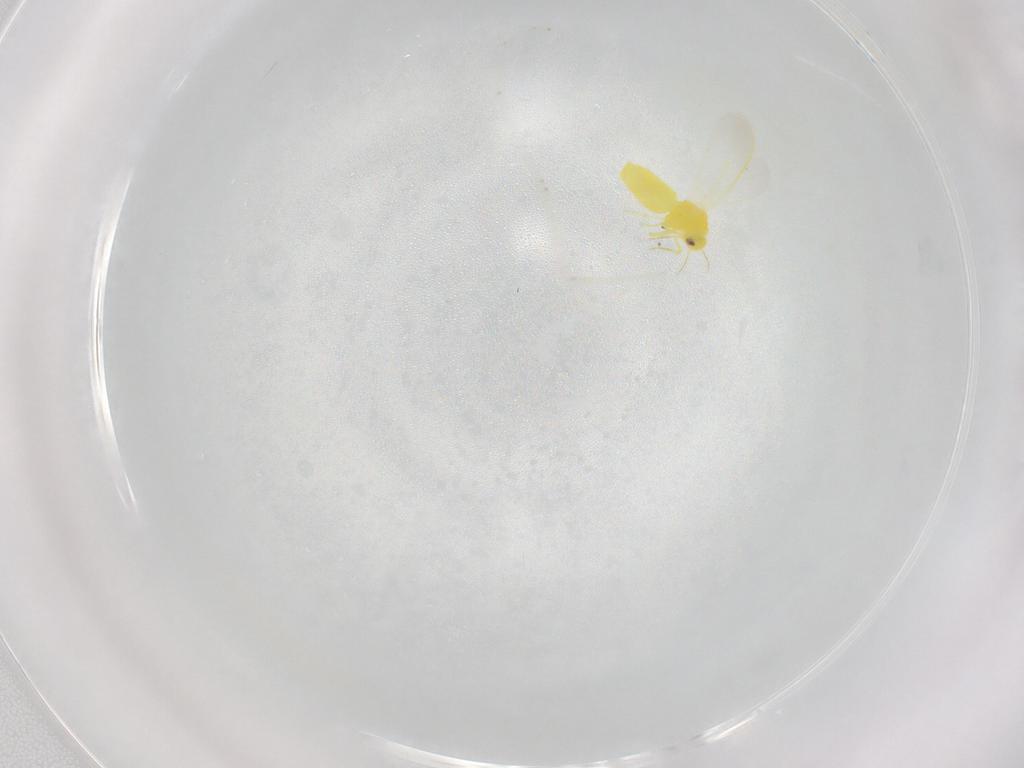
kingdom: Animalia
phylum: Arthropoda
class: Insecta
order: Hemiptera
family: Aleyrodidae
